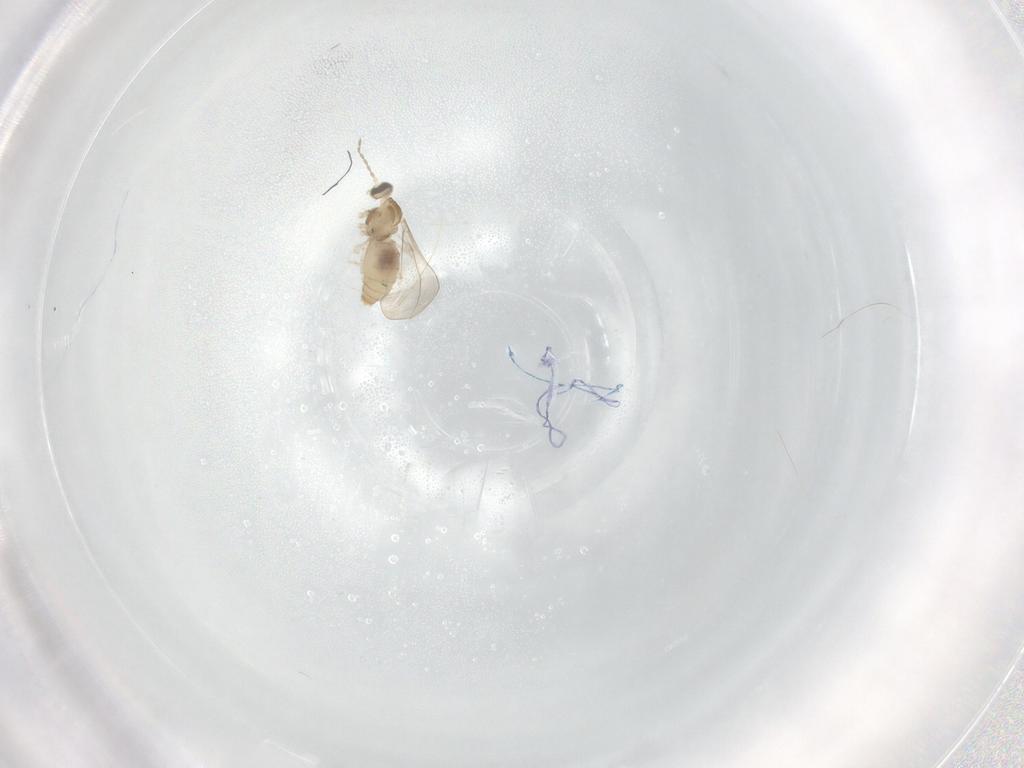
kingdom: Animalia
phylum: Arthropoda
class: Insecta
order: Diptera
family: Cecidomyiidae
